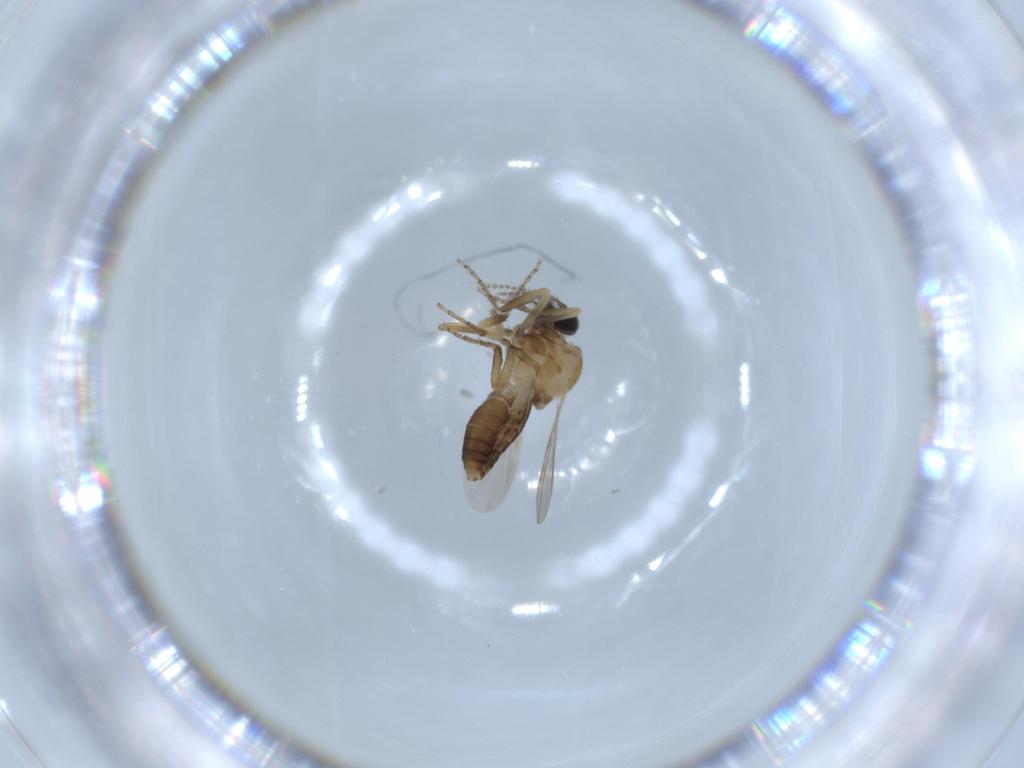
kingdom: Animalia
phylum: Arthropoda
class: Insecta
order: Diptera
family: Ceratopogonidae
